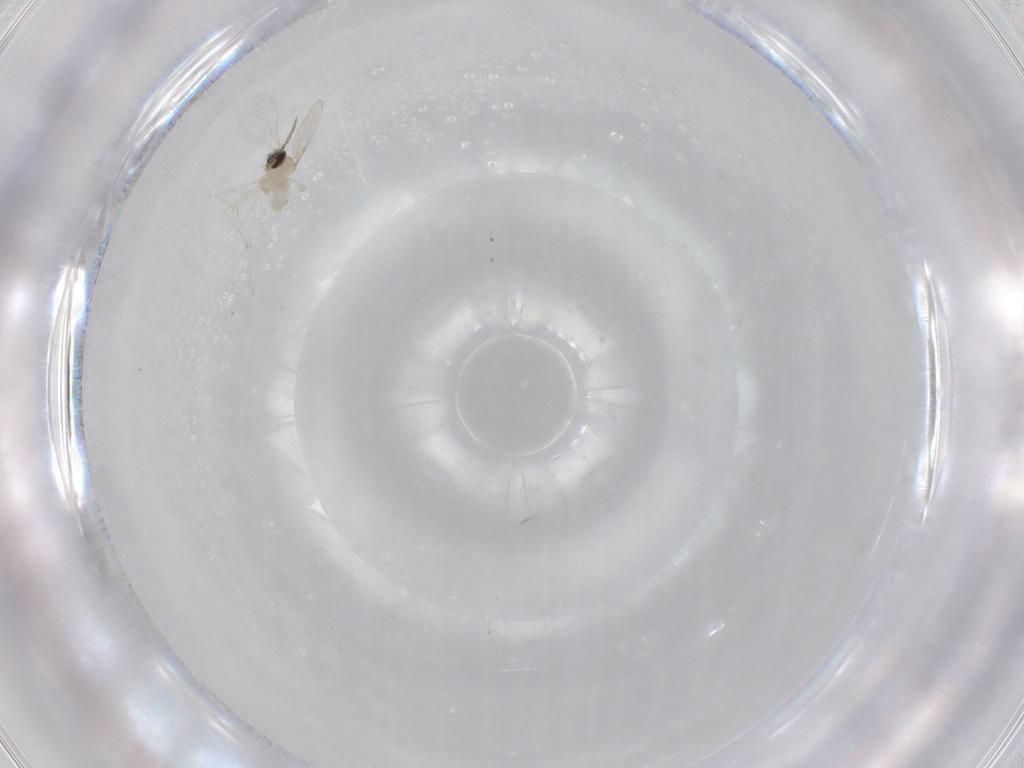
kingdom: Animalia
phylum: Arthropoda
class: Insecta
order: Diptera
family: Cecidomyiidae
